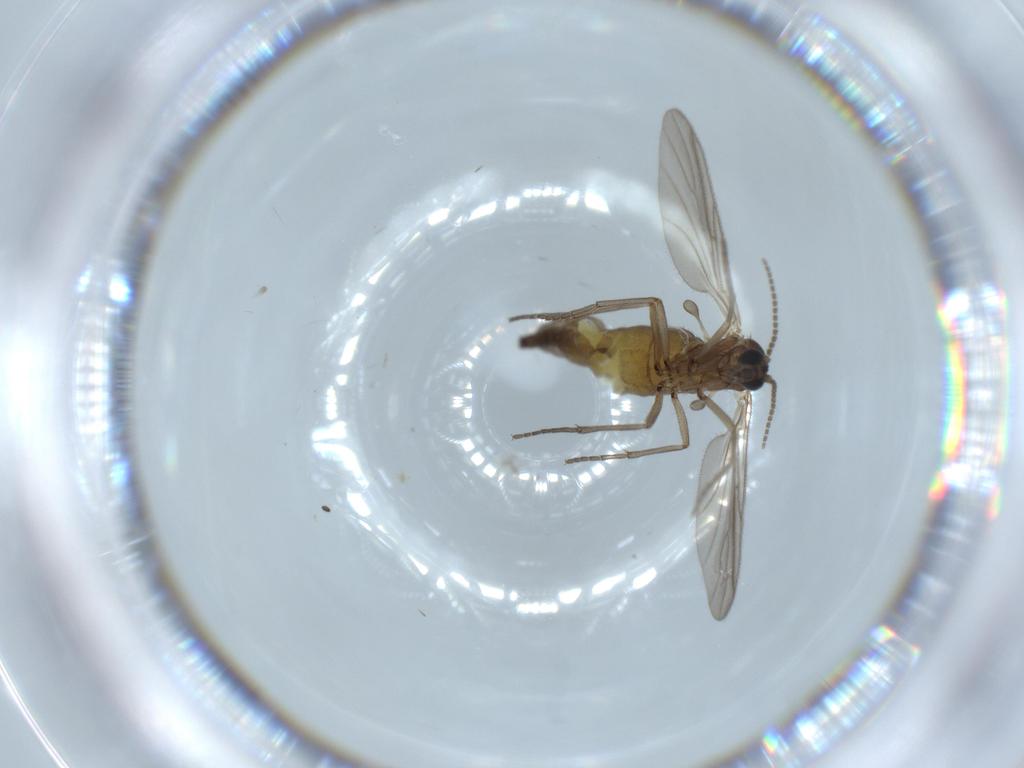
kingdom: Animalia
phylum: Arthropoda
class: Insecta
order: Diptera
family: Sciaridae
